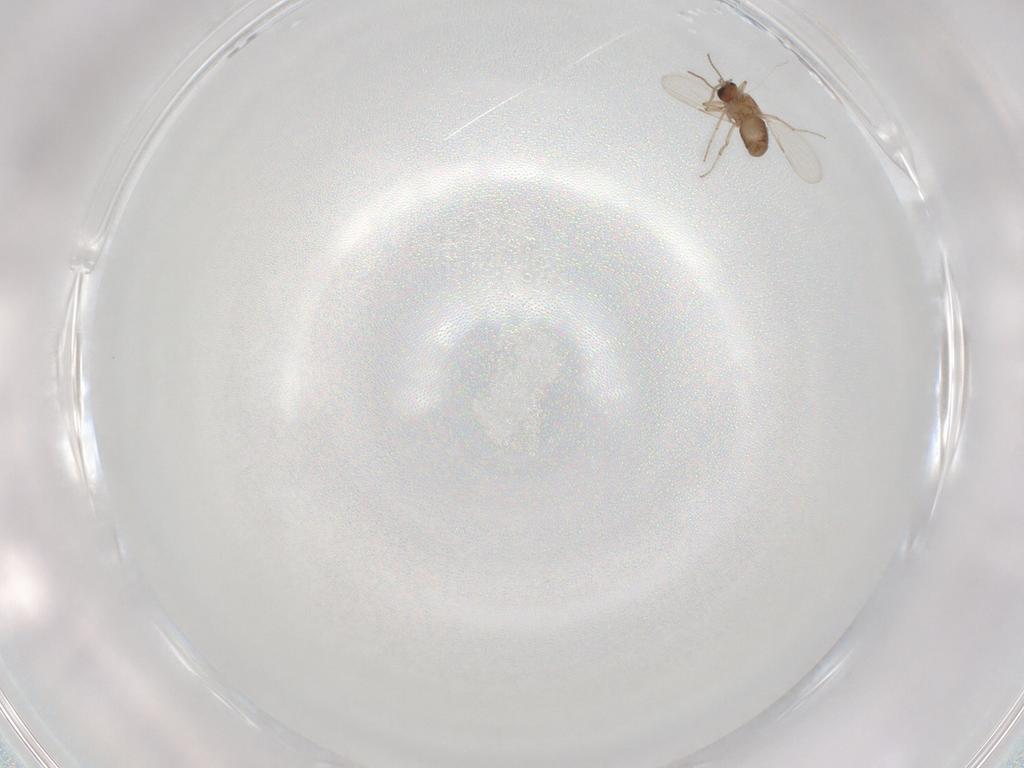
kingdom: Animalia
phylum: Arthropoda
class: Insecta
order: Diptera
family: Ceratopogonidae
